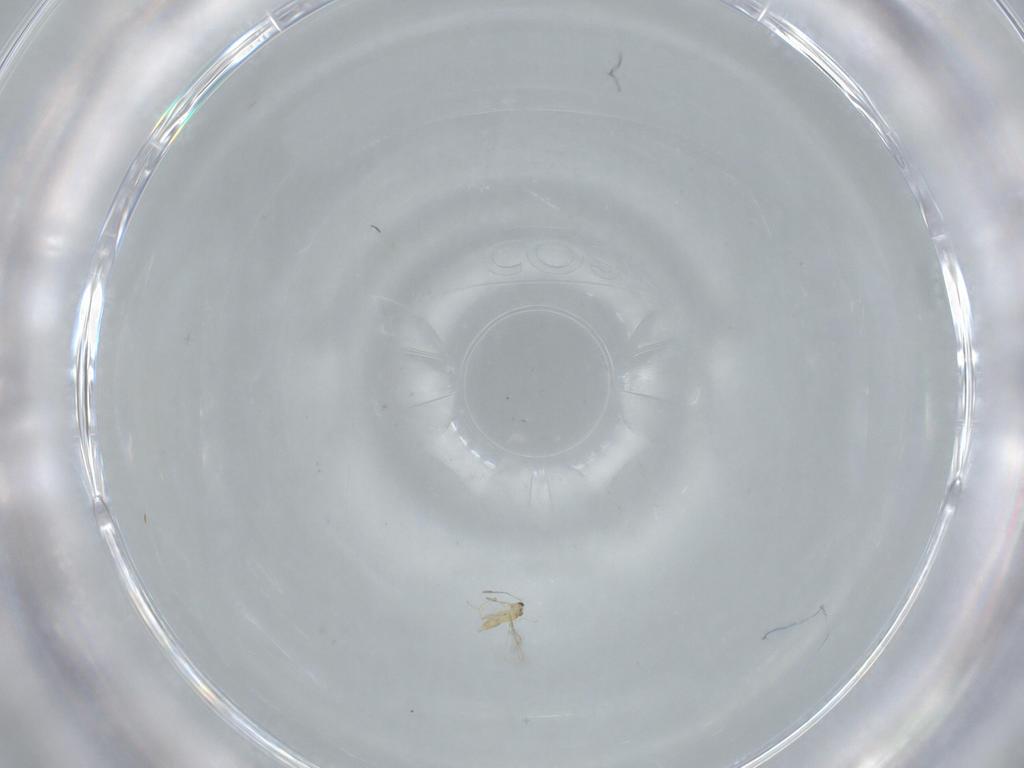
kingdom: Animalia
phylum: Arthropoda
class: Insecta
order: Hymenoptera
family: Mymaridae
